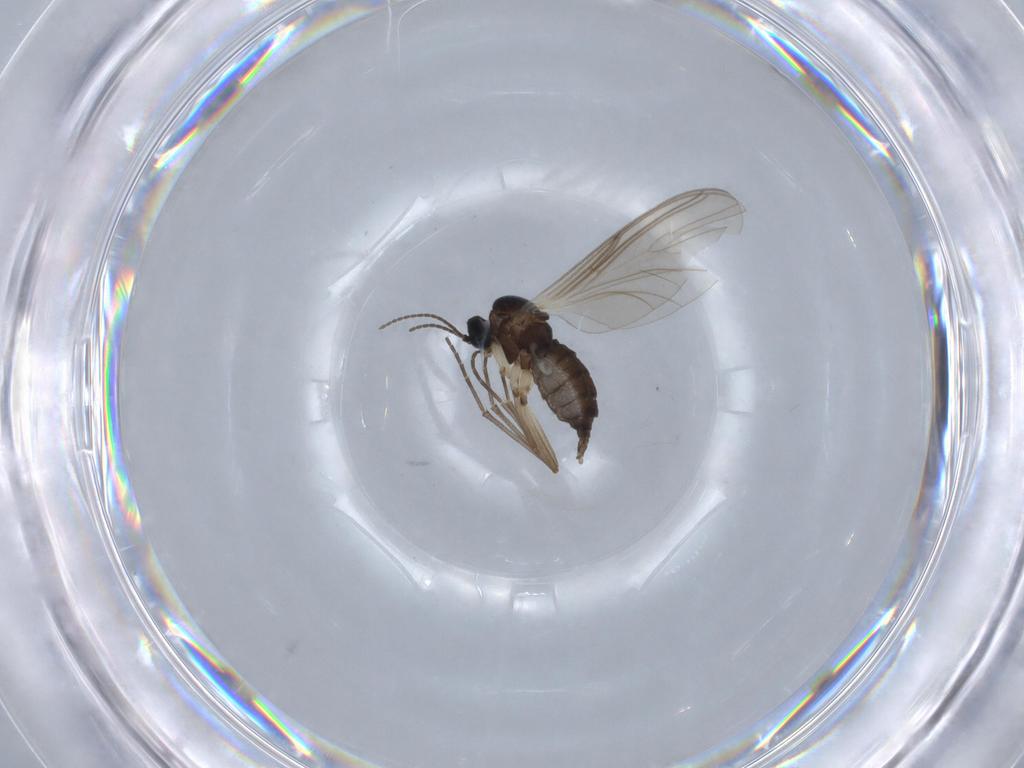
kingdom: Animalia
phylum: Arthropoda
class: Insecta
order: Diptera
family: Sciaridae
